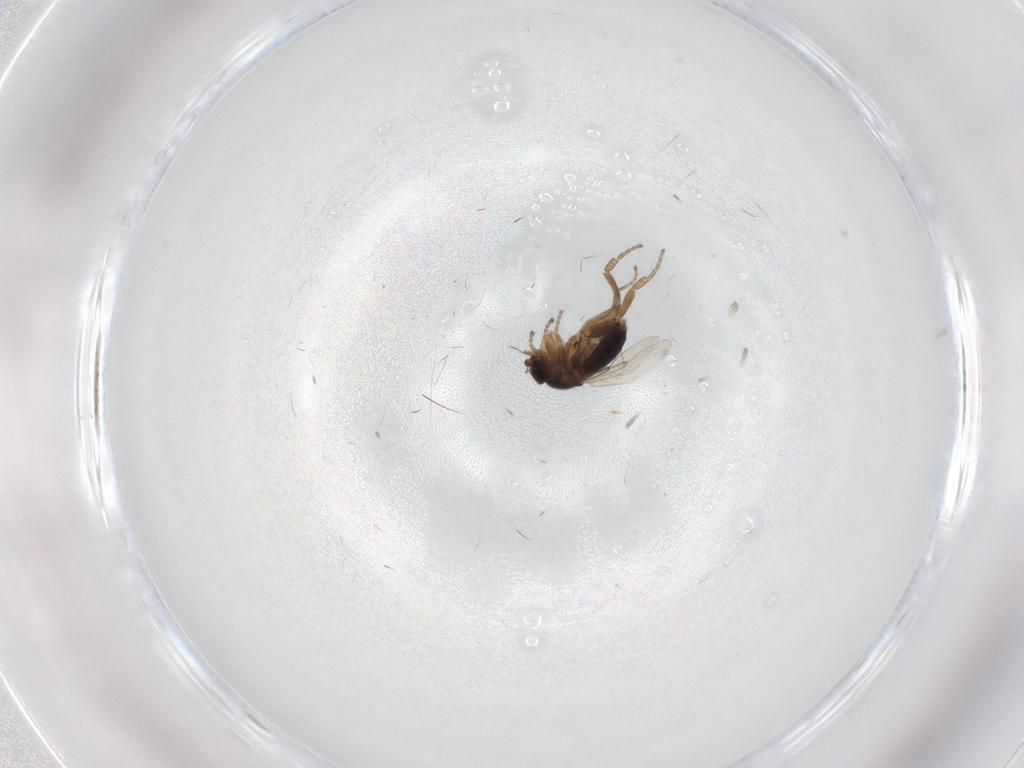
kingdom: Animalia
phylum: Arthropoda
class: Insecta
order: Diptera
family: Phoridae
